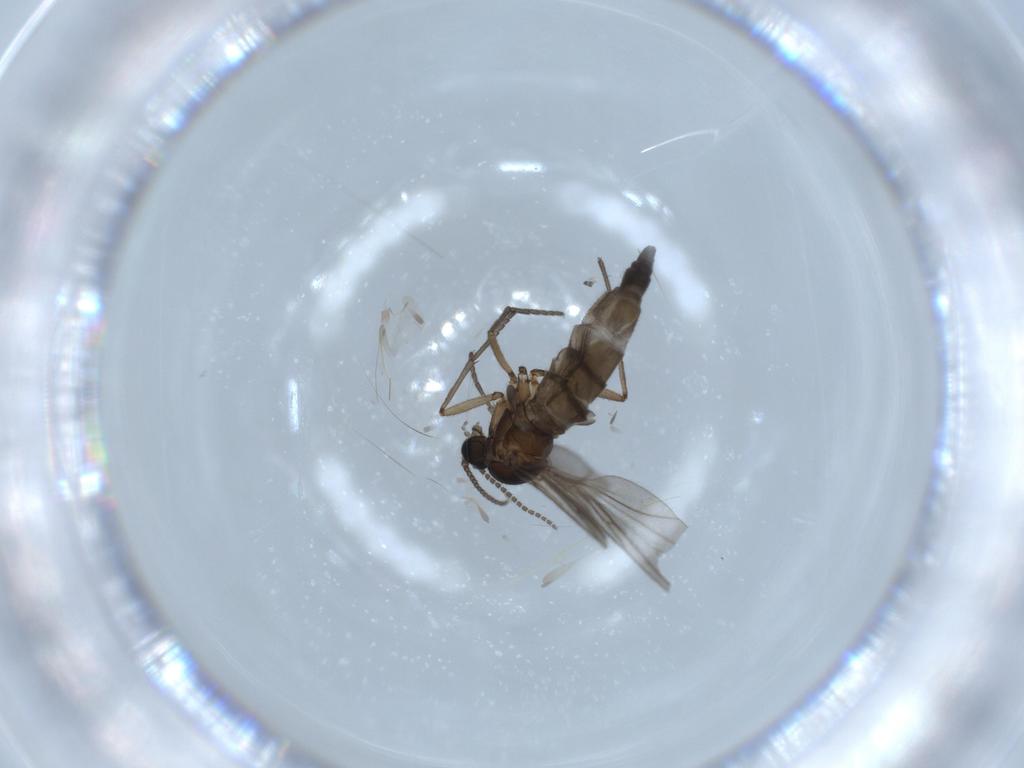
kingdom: Animalia
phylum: Arthropoda
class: Insecta
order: Diptera
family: Sciaridae
